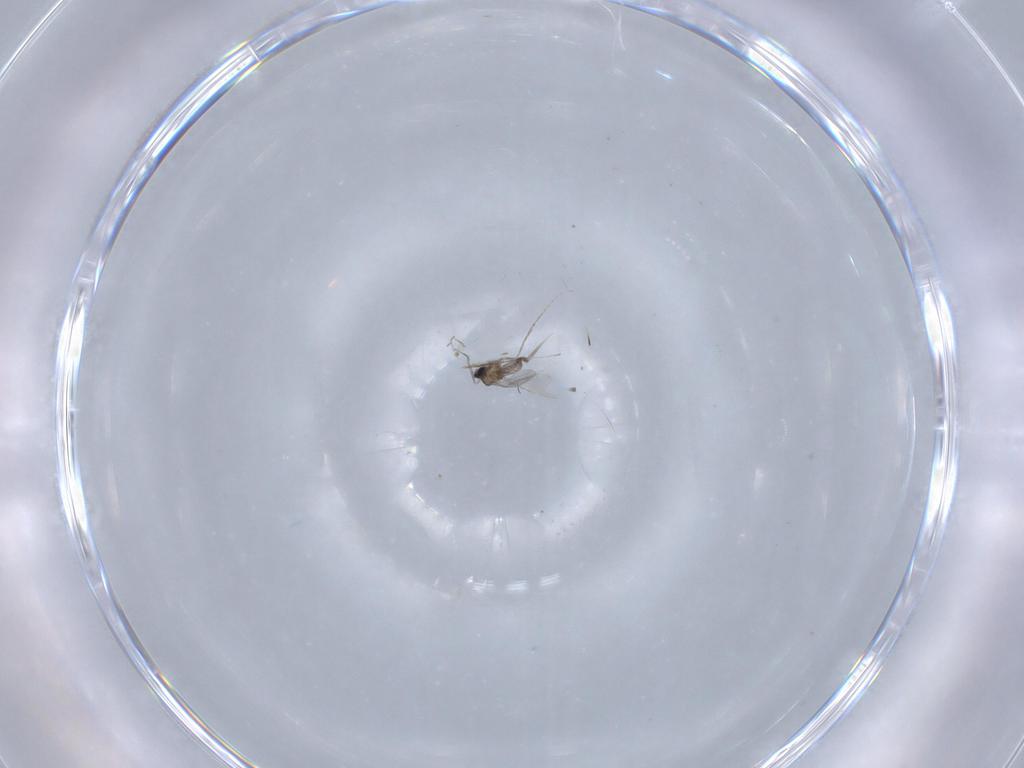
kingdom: Animalia
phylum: Arthropoda
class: Insecta
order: Diptera
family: Cecidomyiidae
